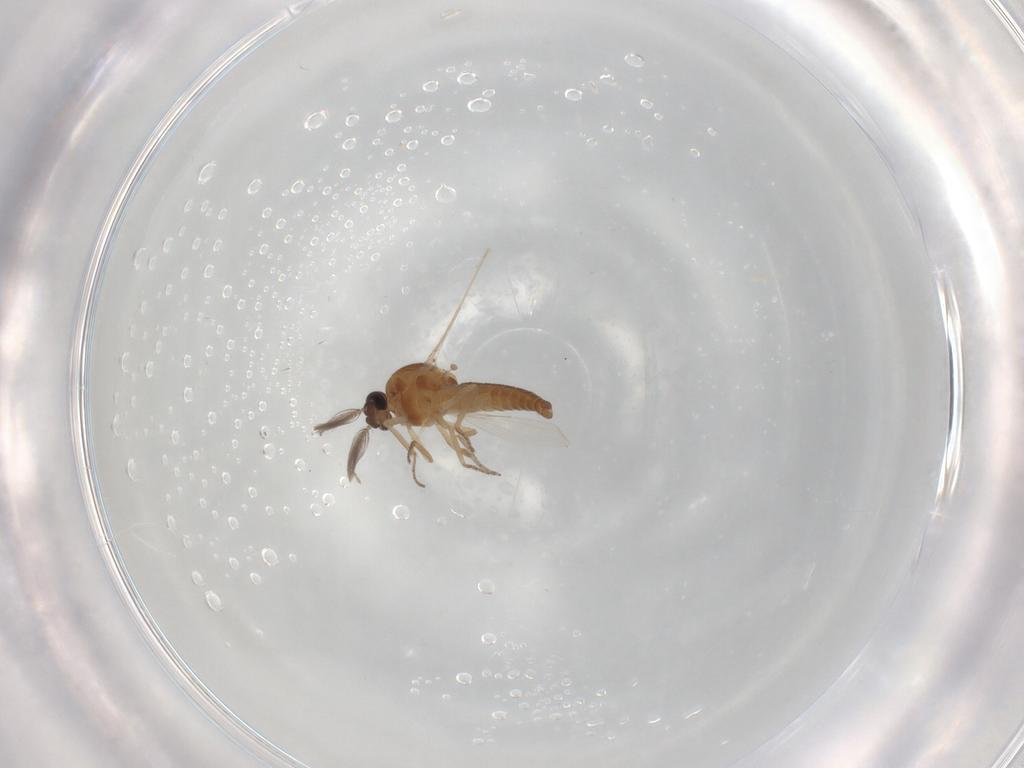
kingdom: Animalia
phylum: Arthropoda
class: Insecta
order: Diptera
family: Ceratopogonidae
